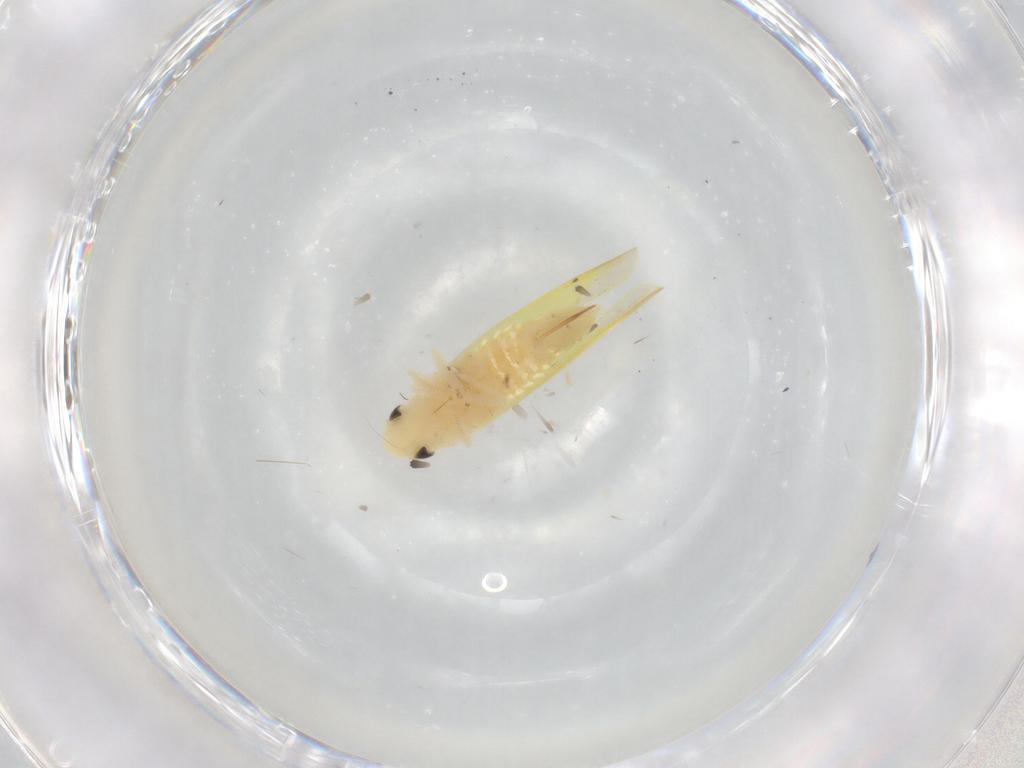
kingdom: Animalia
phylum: Arthropoda
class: Insecta
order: Hemiptera
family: Cicadellidae
